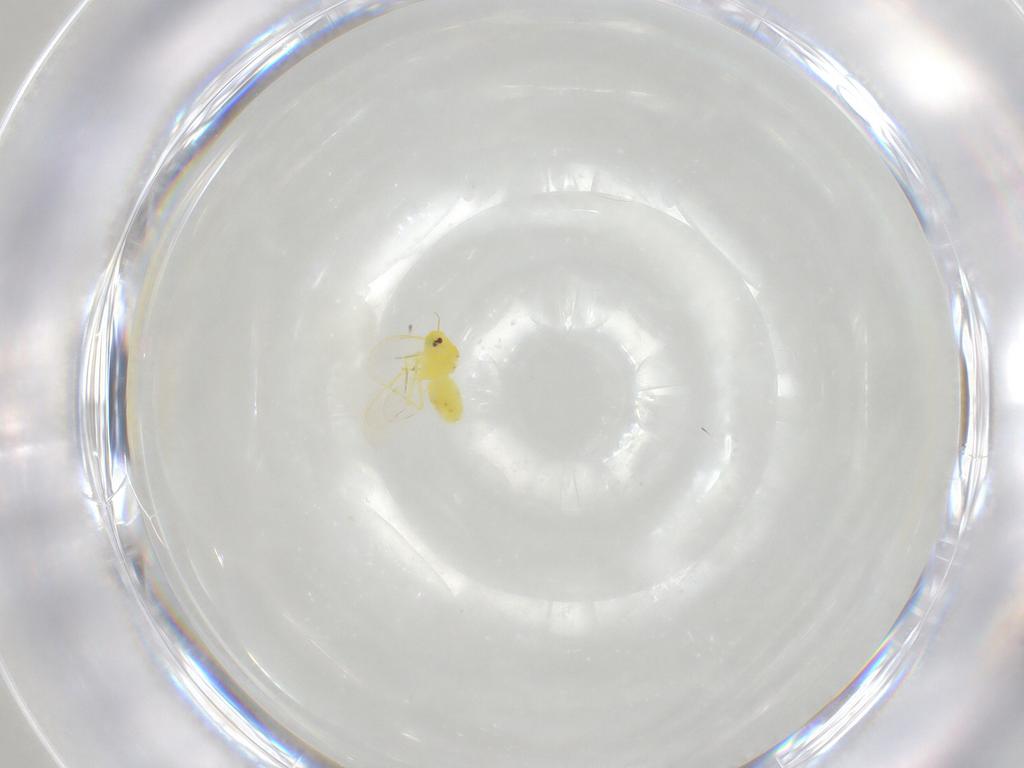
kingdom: Animalia
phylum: Arthropoda
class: Insecta
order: Hemiptera
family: Aleyrodidae
